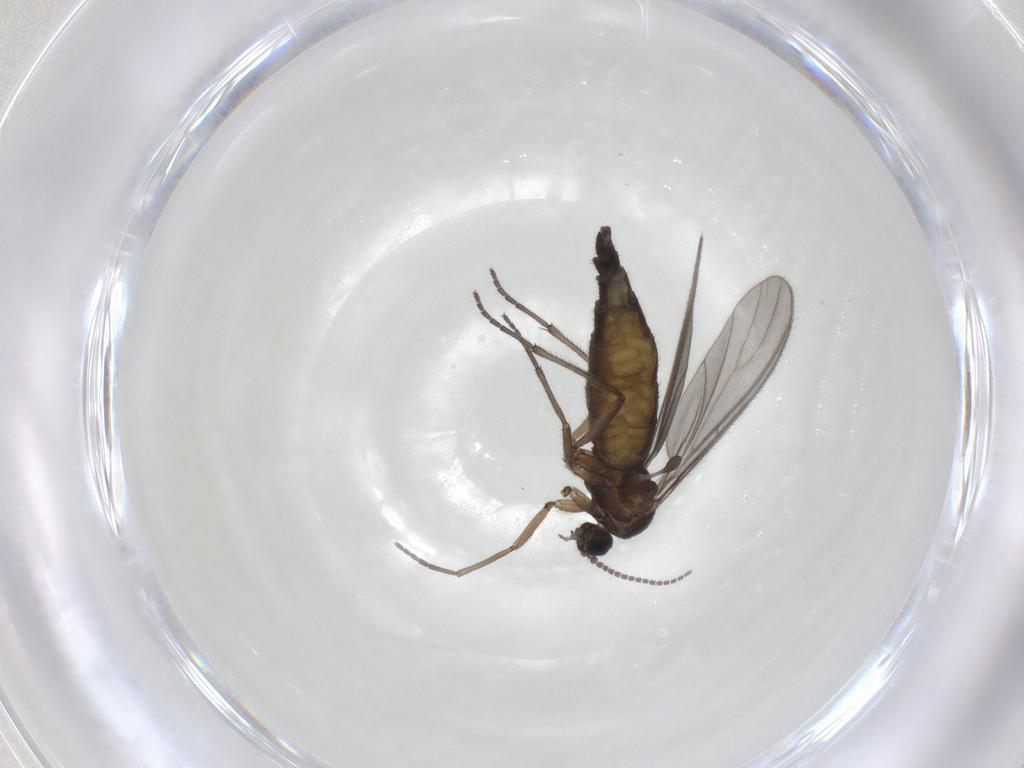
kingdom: Animalia
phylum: Arthropoda
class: Insecta
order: Diptera
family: Sciaridae
